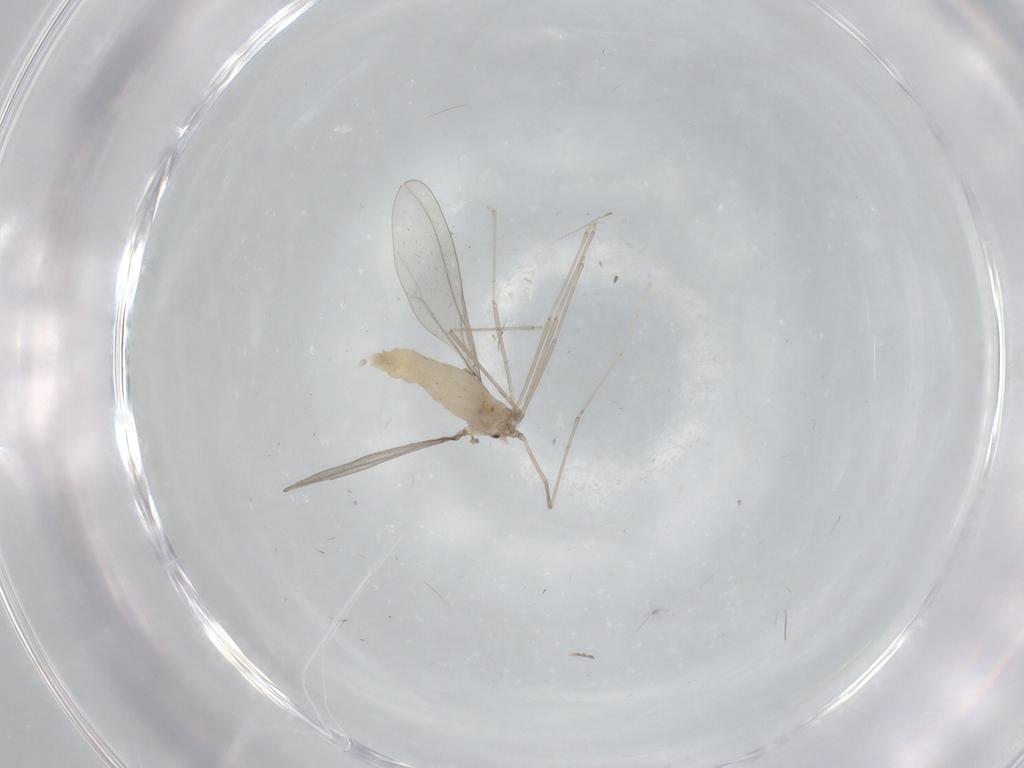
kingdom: Animalia
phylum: Arthropoda
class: Insecta
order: Diptera
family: Cecidomyiidae
